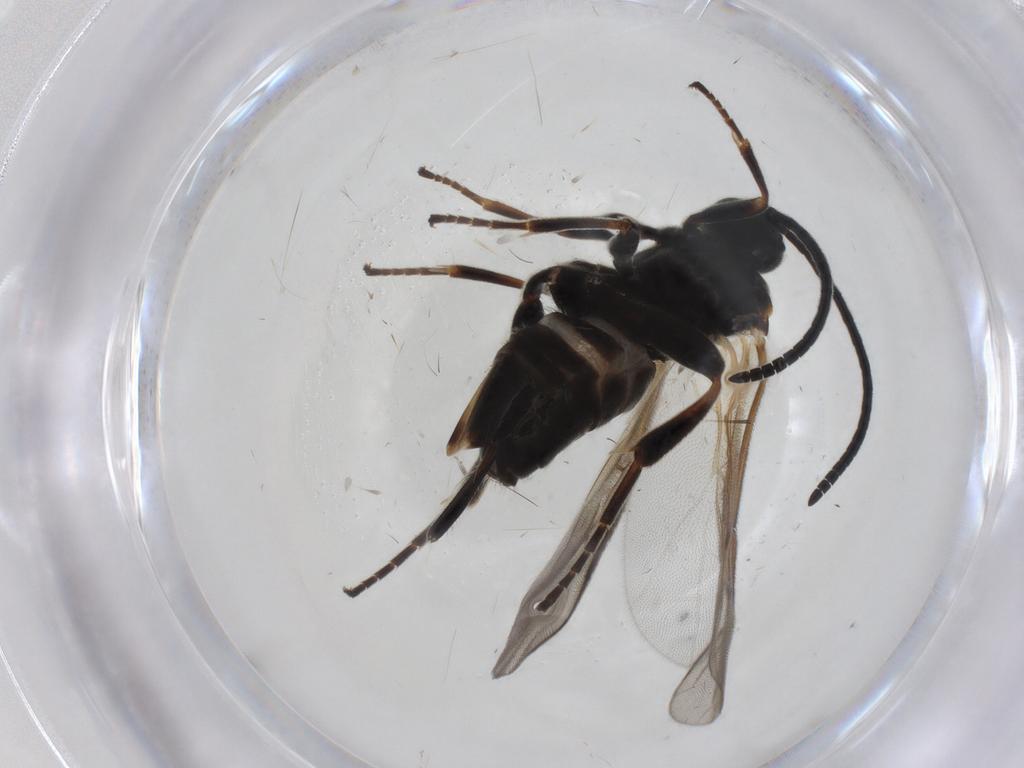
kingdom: Animalia
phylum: Arthropoda
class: Insecta
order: Hymenoptera
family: Braconidae
